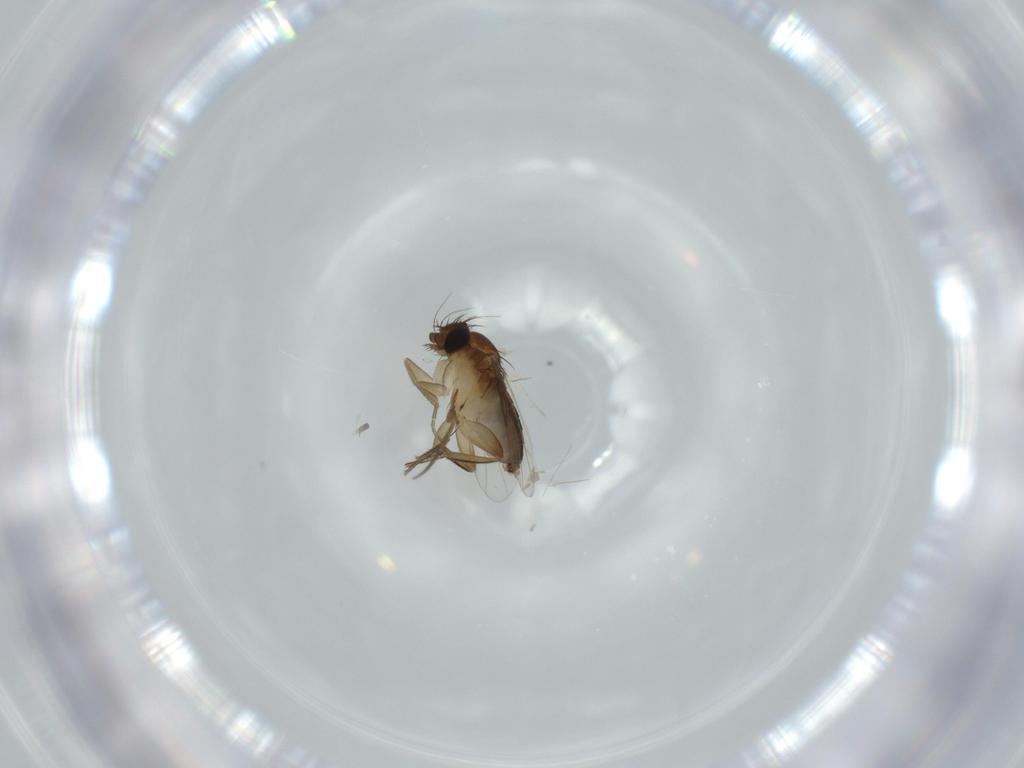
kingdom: Animalia
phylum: Arthropoda
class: Insecta
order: Diptera
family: Phoridae
